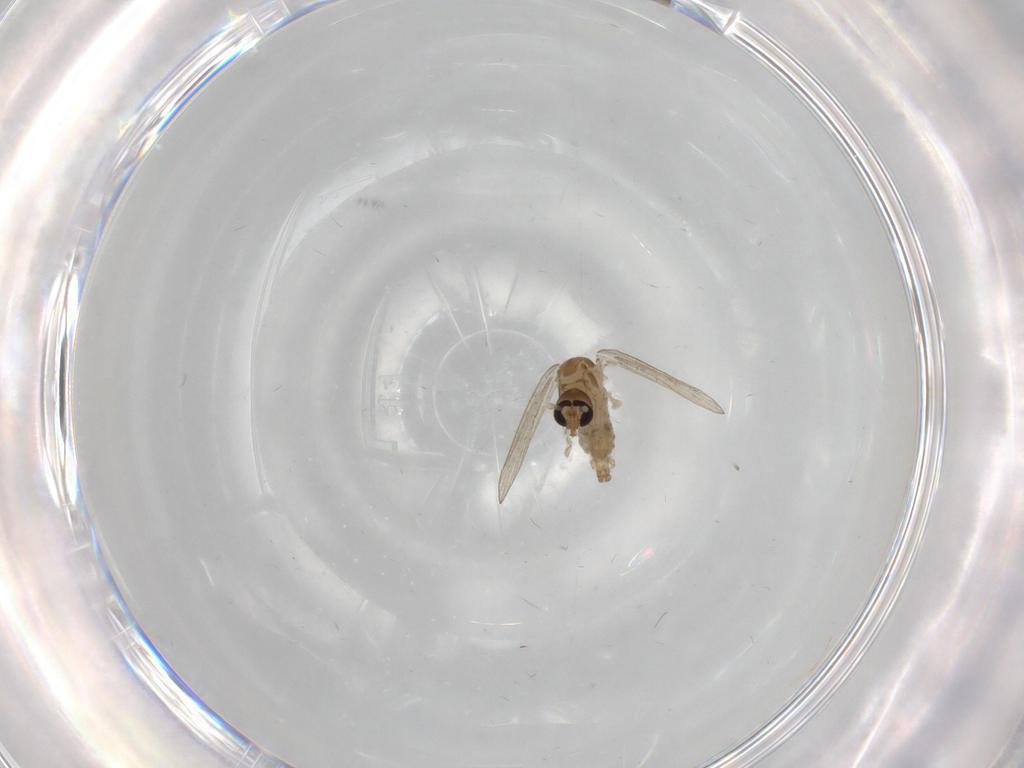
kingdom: Animalia
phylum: Arthropoda
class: Insecta
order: Diptera
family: Psychodidae
